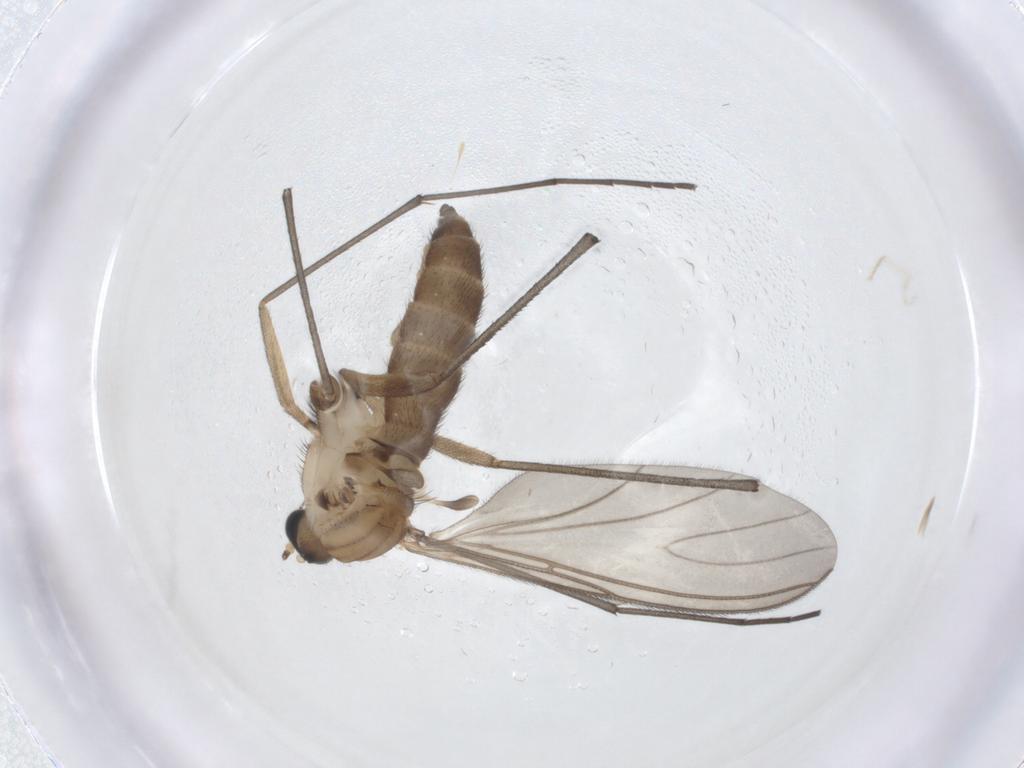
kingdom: Animalia
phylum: Arthropoda
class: Insecta
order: Diptera
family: Sciaridae
